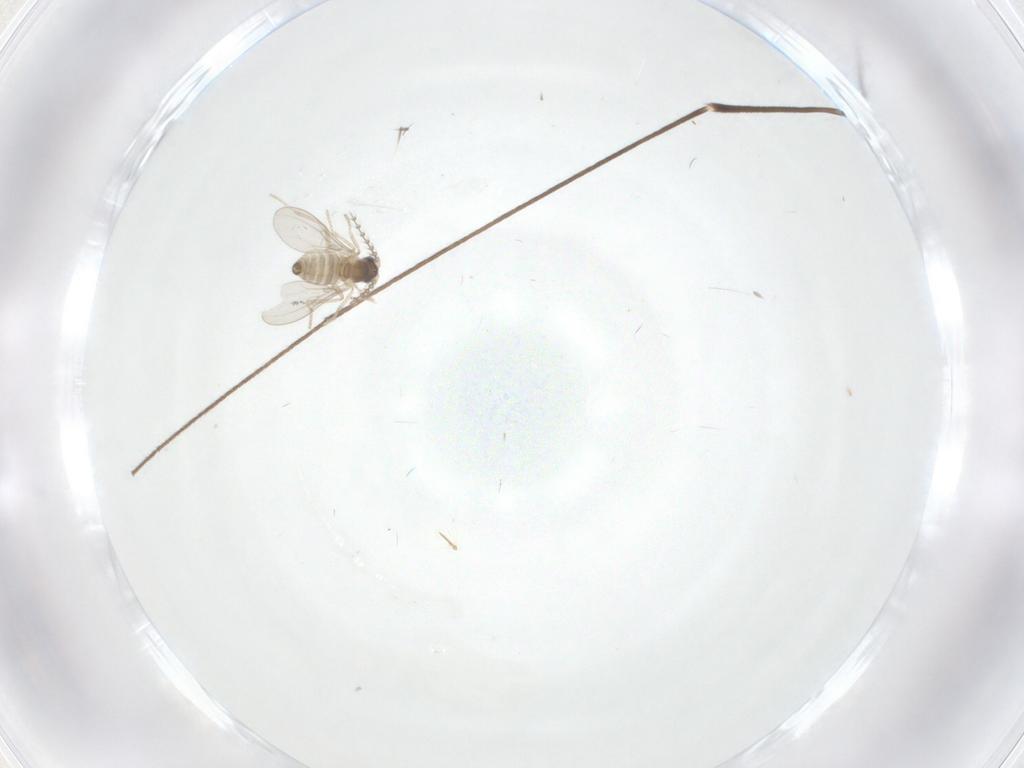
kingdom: Animalia
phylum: Arthropoda
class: Insecta
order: Diptera
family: Limoniidae
